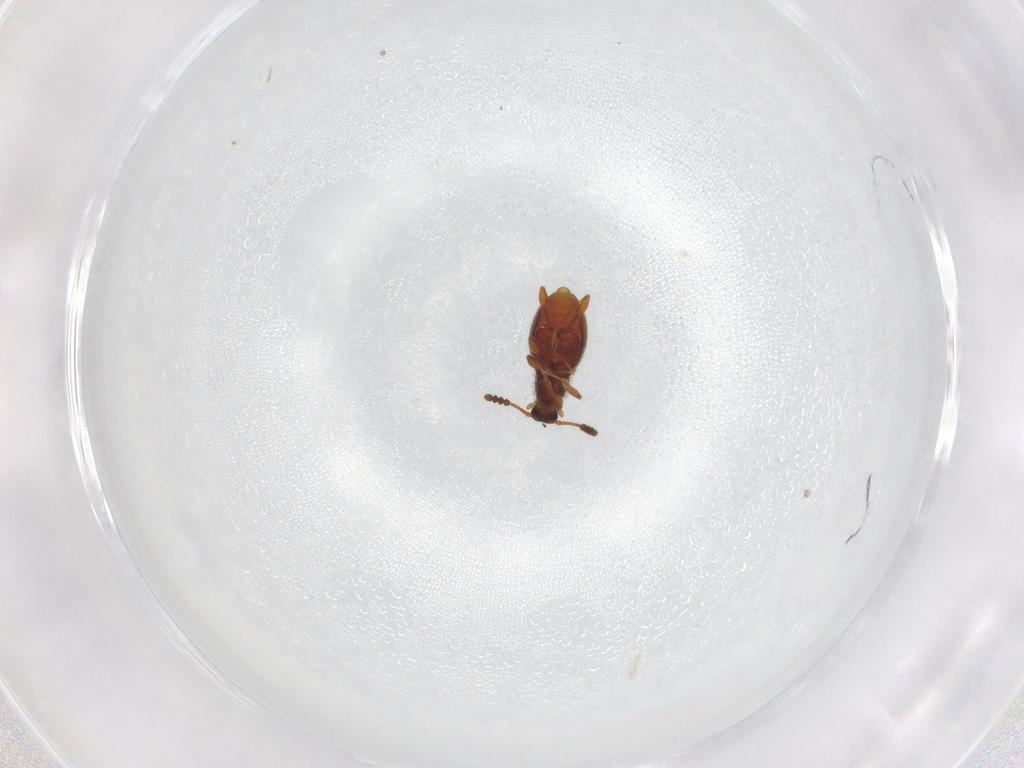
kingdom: Animalia
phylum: Arthropoda
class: Insecta
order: Coleoptera
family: Staphylinidae
